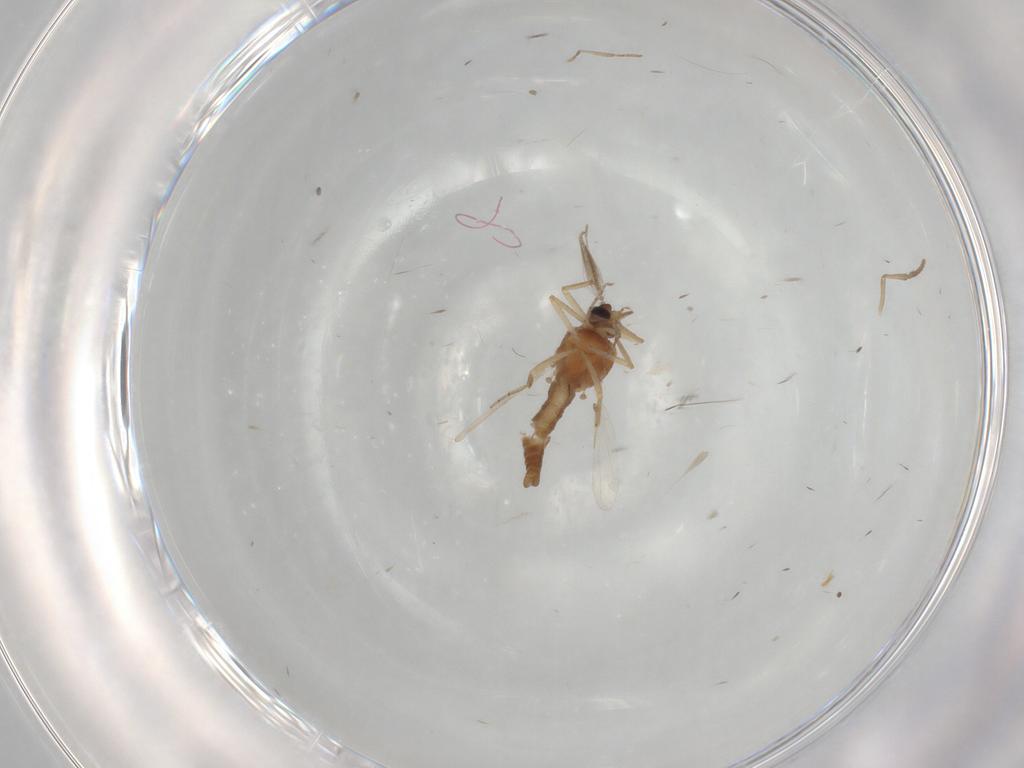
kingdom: Animalia
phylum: Arthropoda
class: Insecta
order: Diptera
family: Ceratopogonidae
